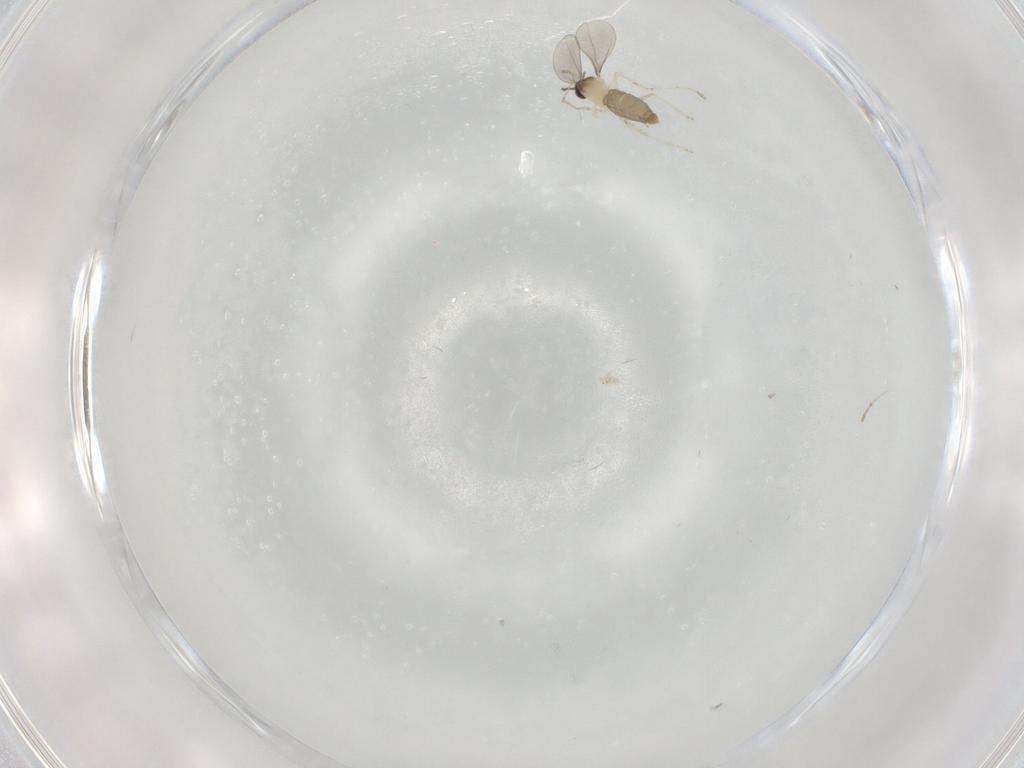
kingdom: Animalia
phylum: Arthropoda
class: Insecta
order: Diptera
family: Cecidomyiidae
